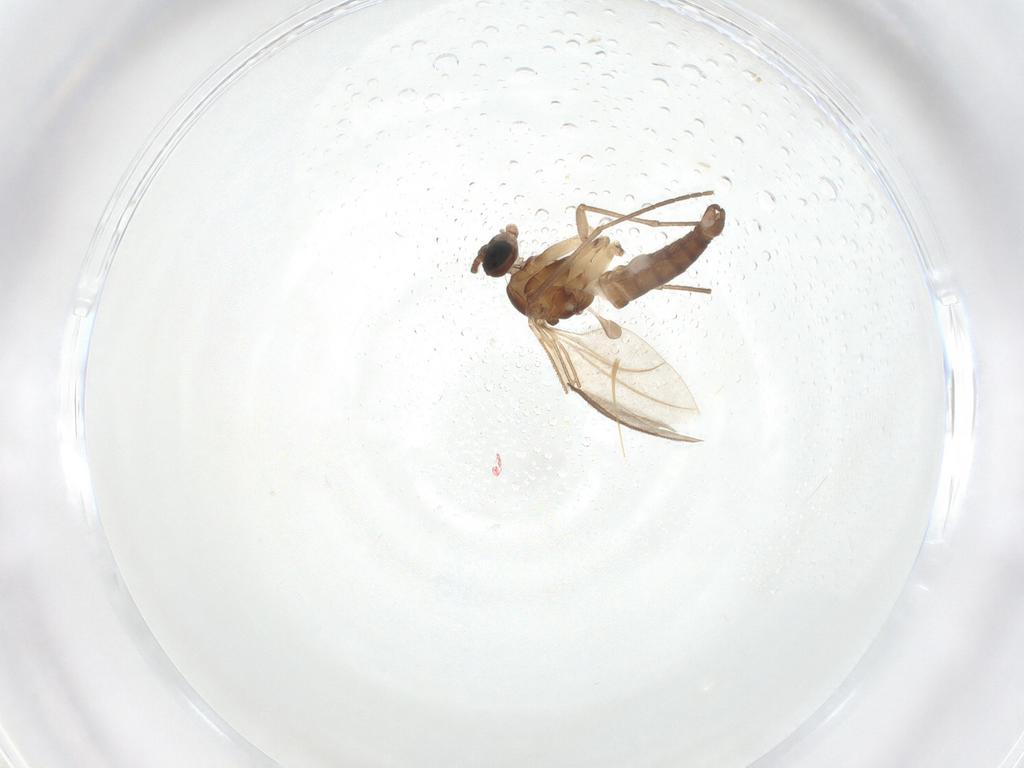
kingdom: Animalia
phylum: Arthropoda
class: Insecta
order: Diptera
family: Sciaridae
